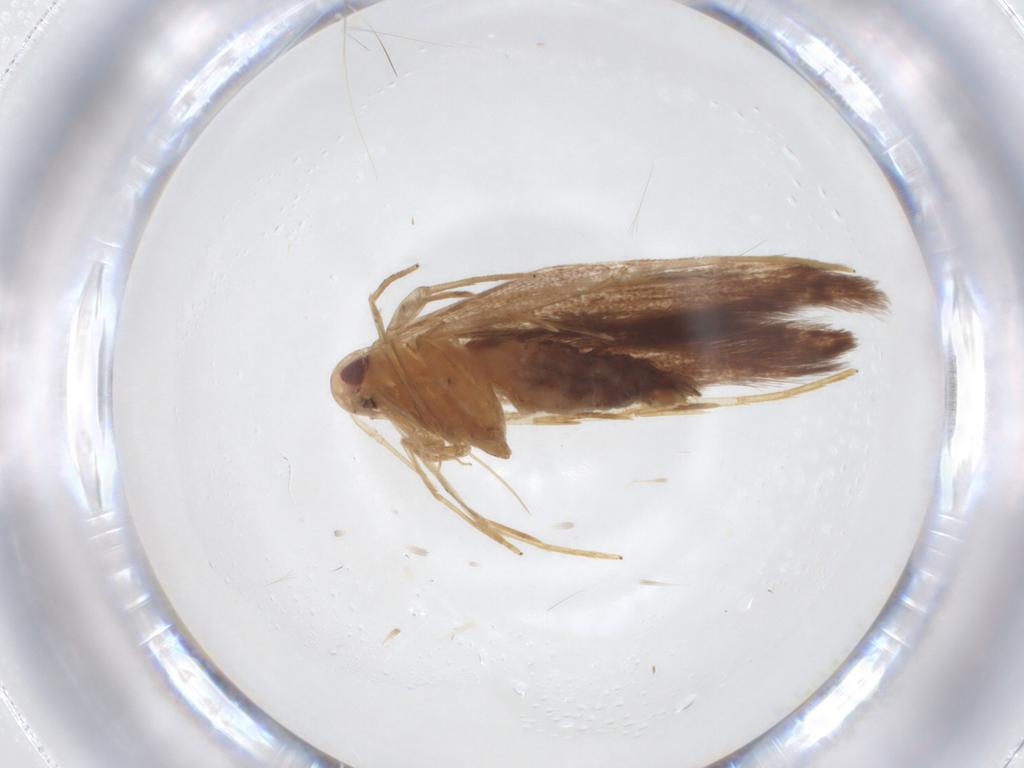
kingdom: Animalia
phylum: Arthropoda
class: Insecta
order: Lepidoptera
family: Cosmopterigidae
